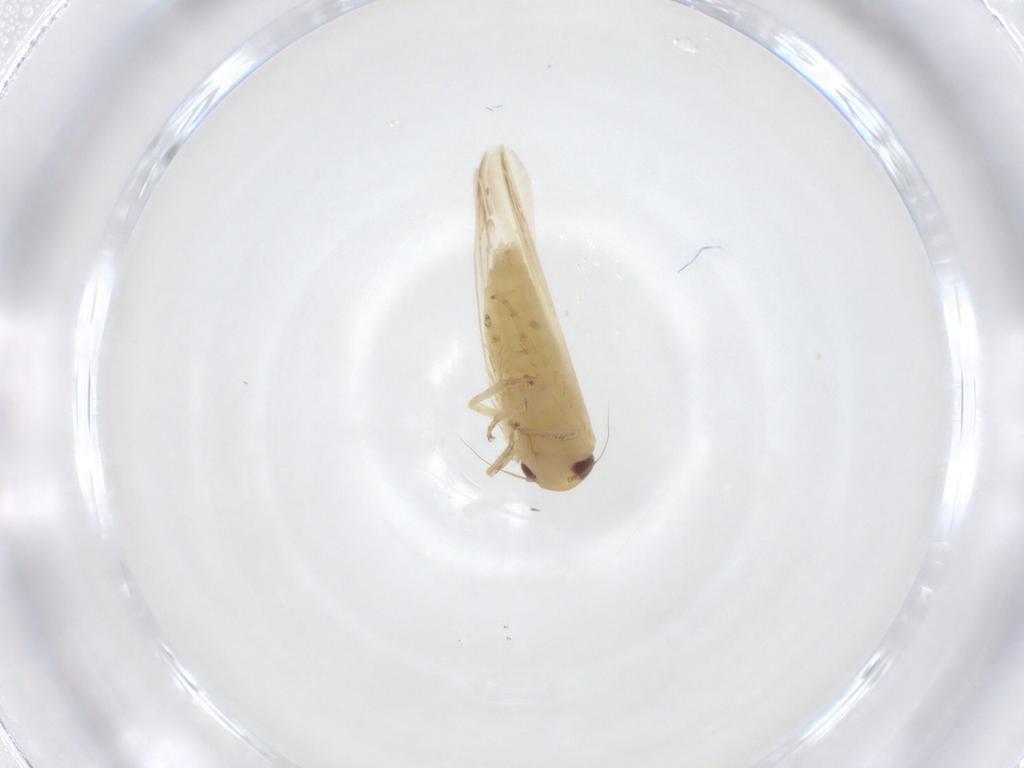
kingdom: Animalia
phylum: Arthropoda
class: Insecta
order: Hemiptera
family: Cicadellidae
